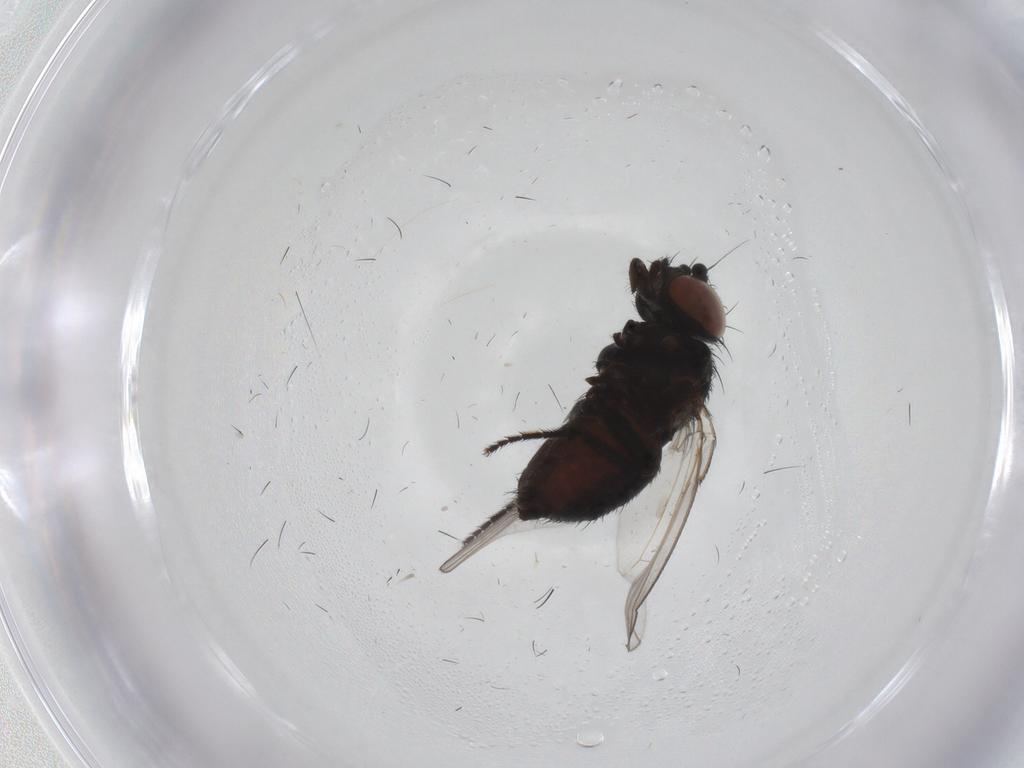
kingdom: Animalia
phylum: Arthropoda
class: Insecta
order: Diptera
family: Milichiidae
